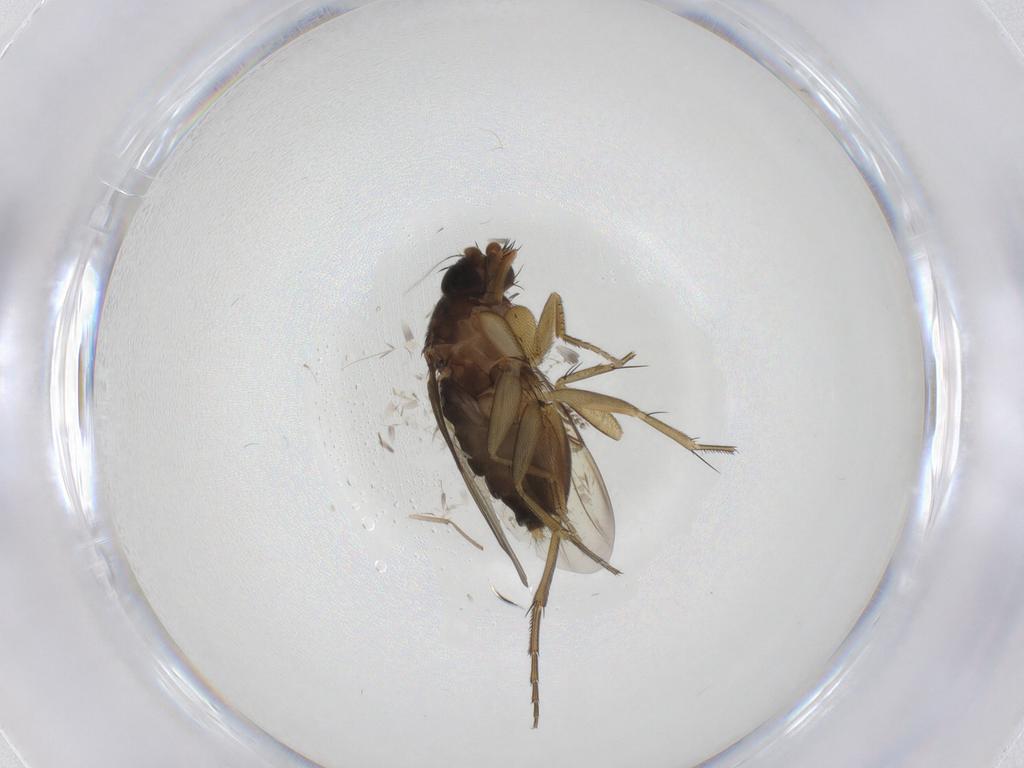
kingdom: Animalia
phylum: Arthropoda
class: Insecta
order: Diptera
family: Phoridae
